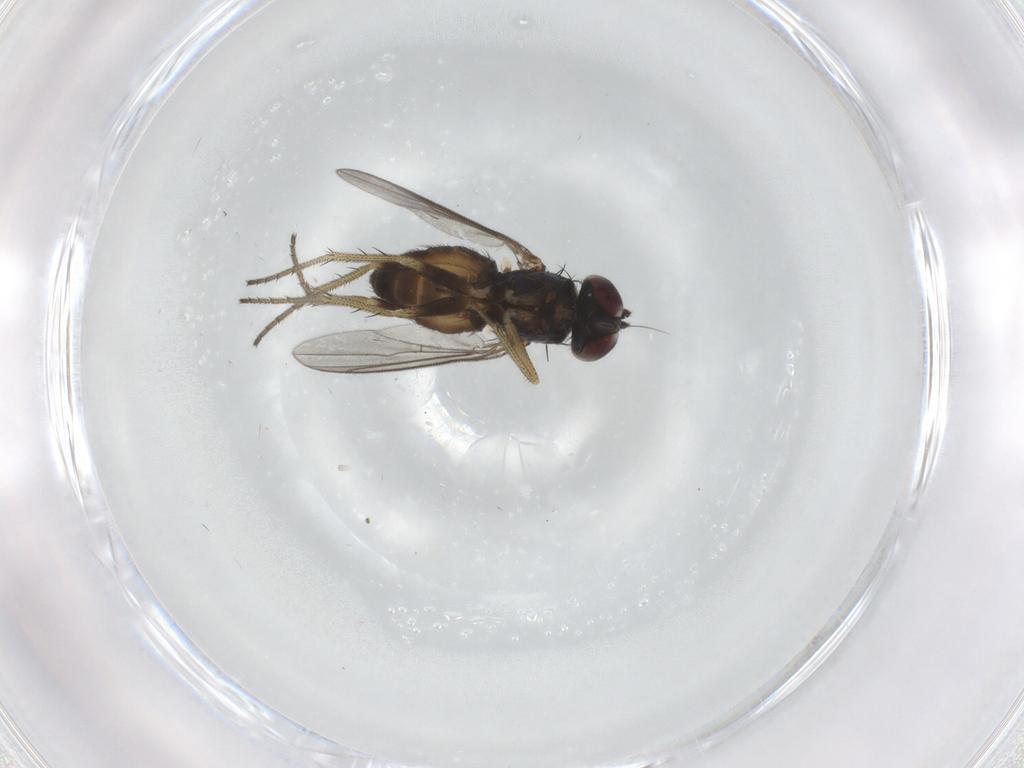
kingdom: Animalia
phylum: Arthropoda
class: Insecta
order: Diptera
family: Dolichopodidae
